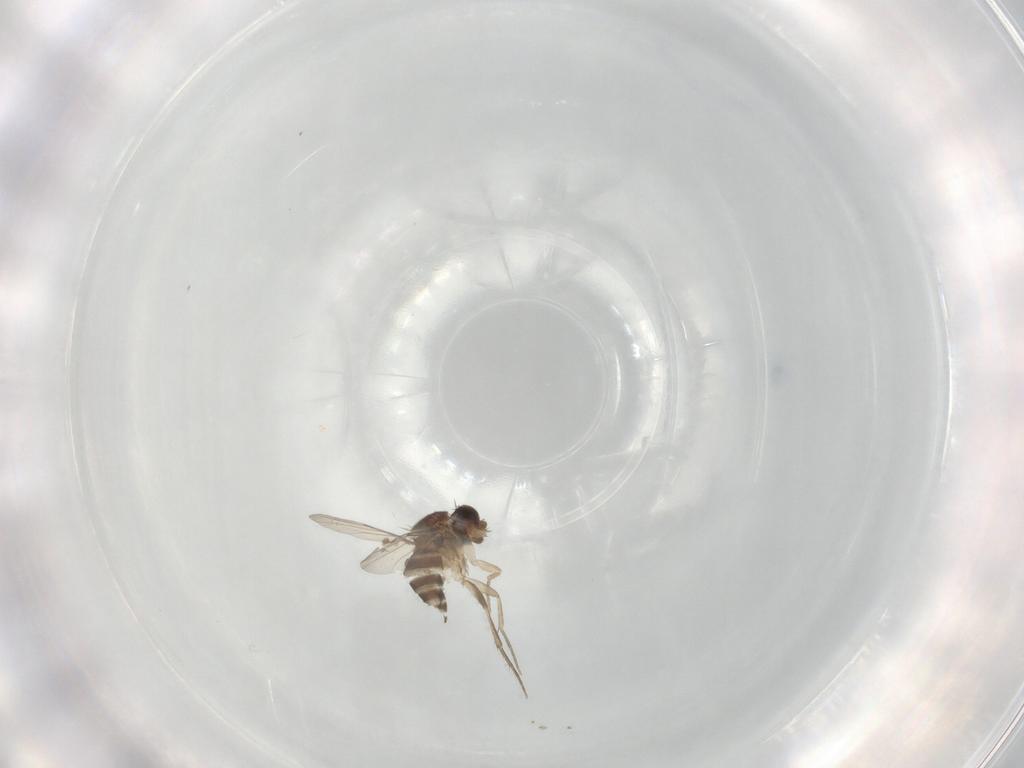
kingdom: Animalia
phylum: Arthropoda
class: Insecta
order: Diptera
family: Phoridae
